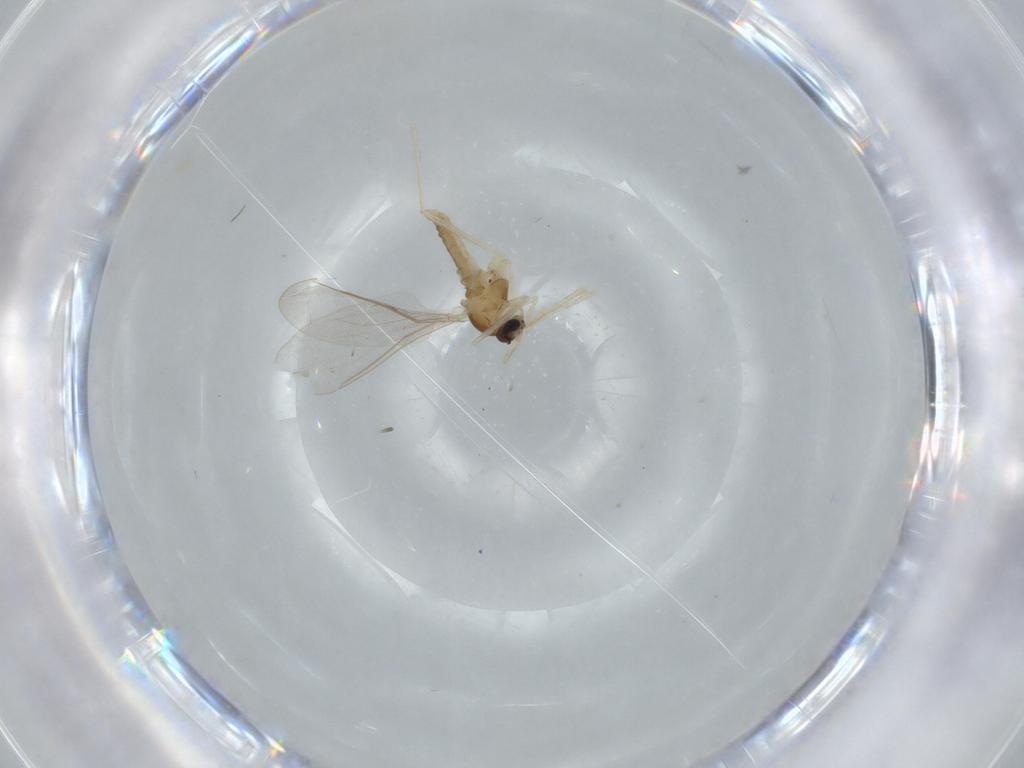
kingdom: Animalia
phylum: Arthropoda
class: Insecta
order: Diptera
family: Cecidomyiidae
